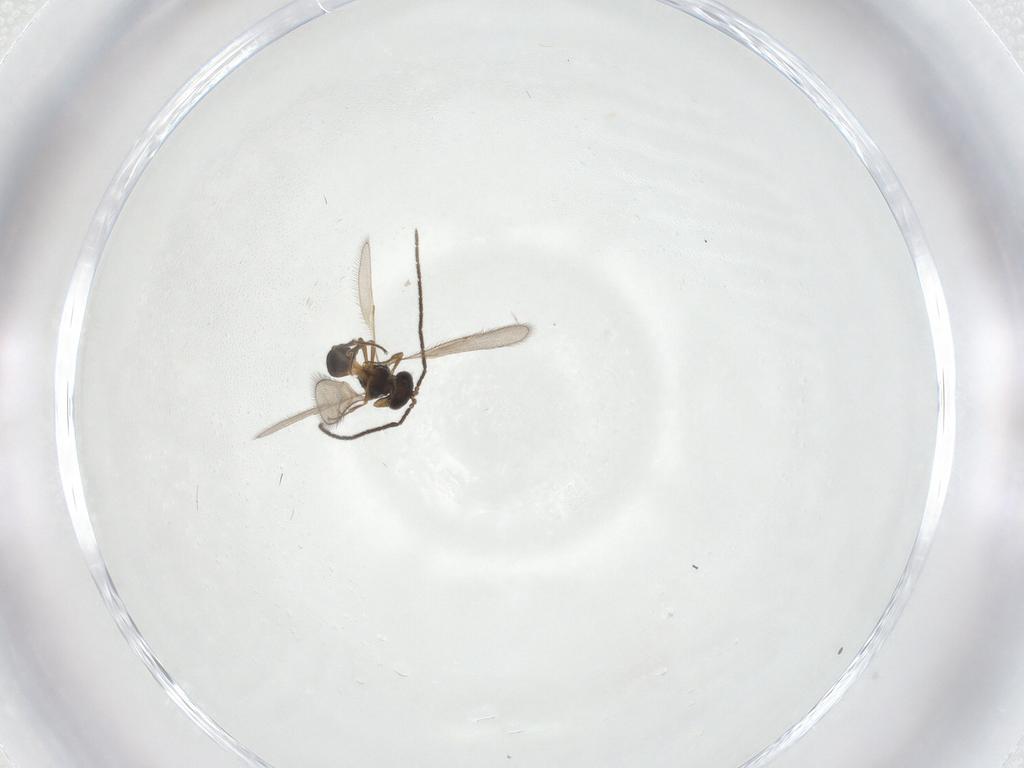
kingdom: Animalia
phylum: Arthropoda
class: Insecta
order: Hymenoptera
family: Scelionidae
